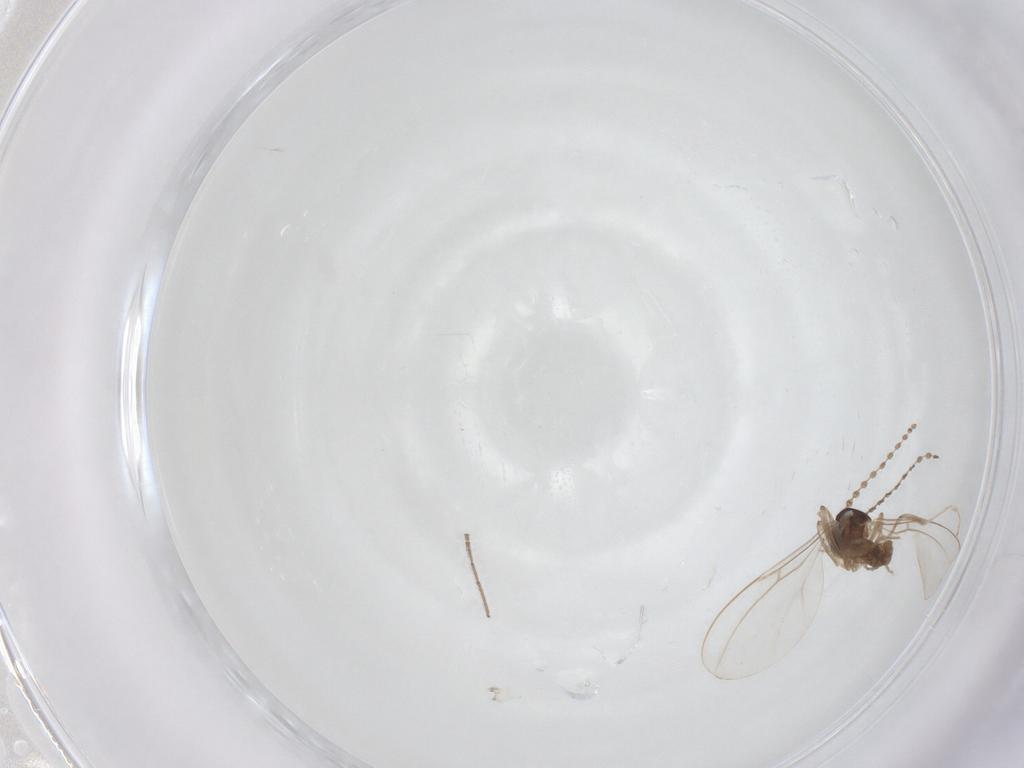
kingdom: Animalia
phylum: Arthropoda
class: Insecta
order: Diptera
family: Cecidomyiidae
